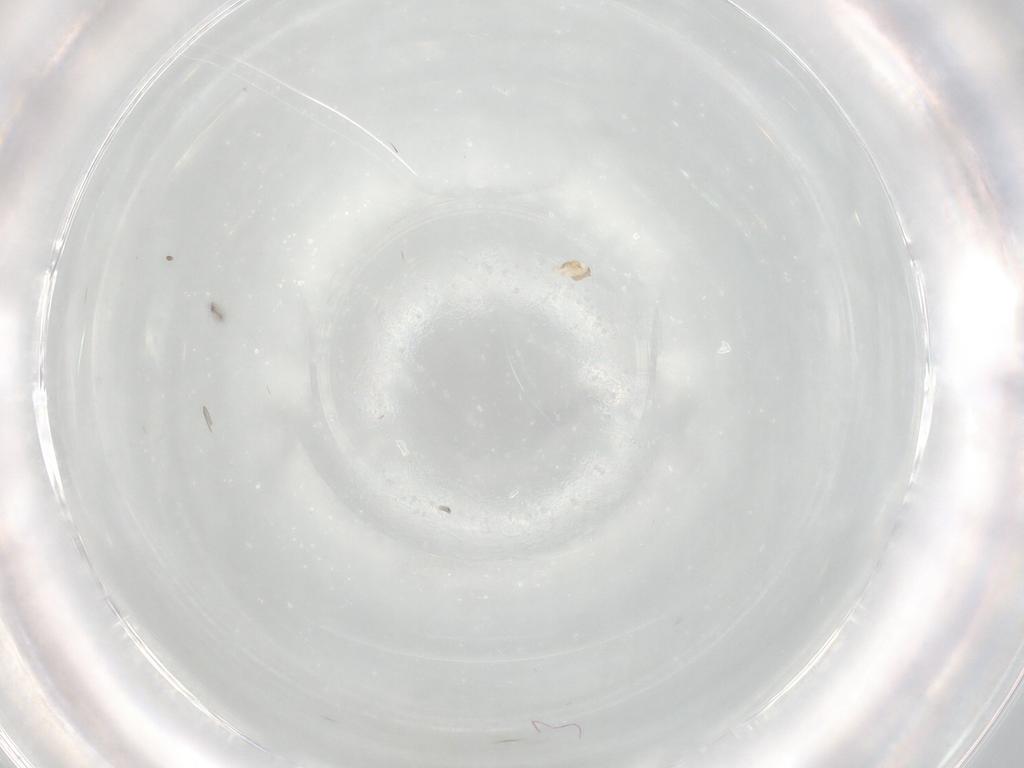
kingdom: Animalia
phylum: Arthropoda
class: Insecta
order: Diptera
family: Cecidomyiidae
